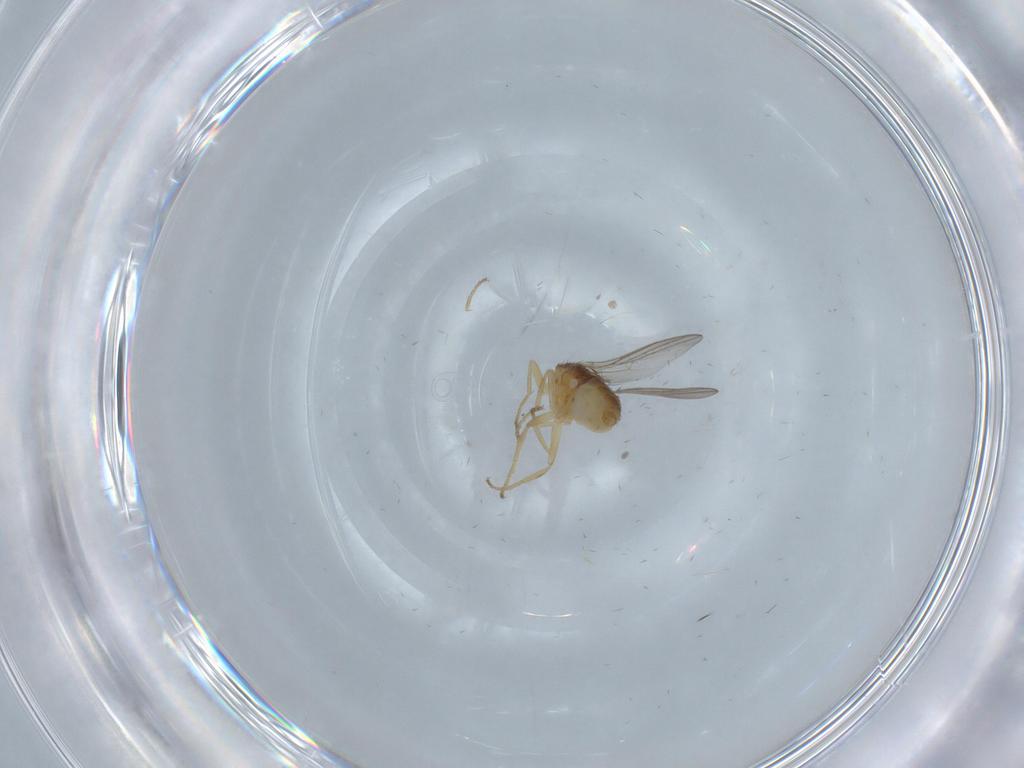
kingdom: Animalia
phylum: Arthropoda
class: Insecta
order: Diptera
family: Chloropidae
